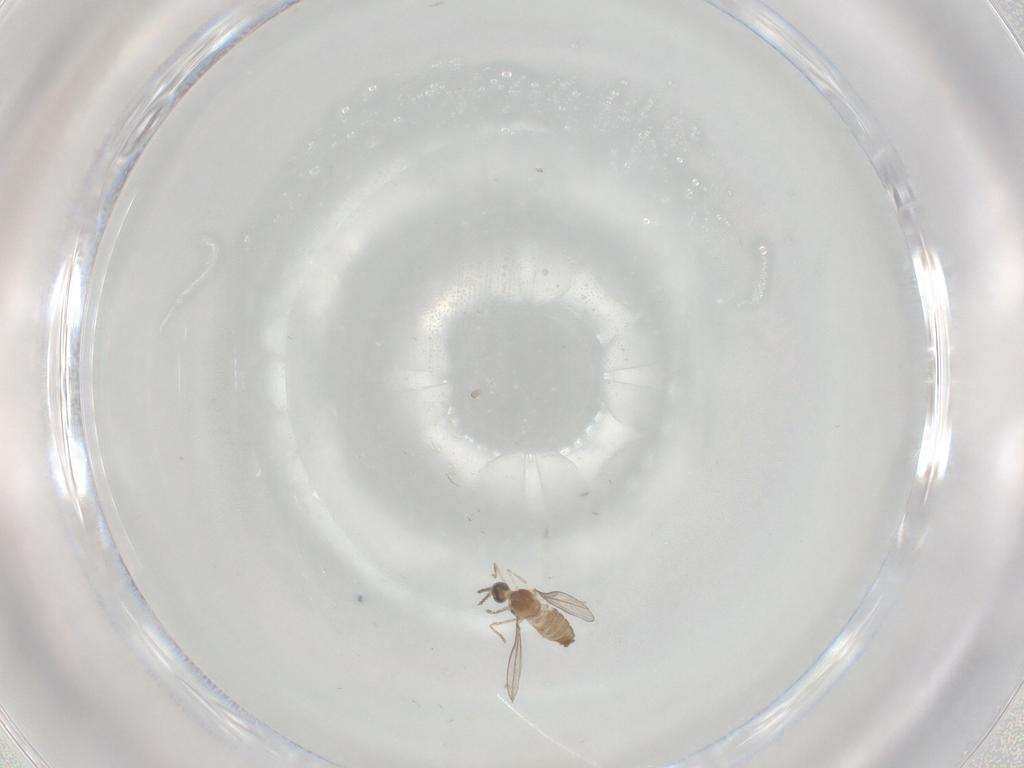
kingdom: Animalia
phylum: Arthropoda
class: Insecta
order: Diptera
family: Cecidomyiidae
